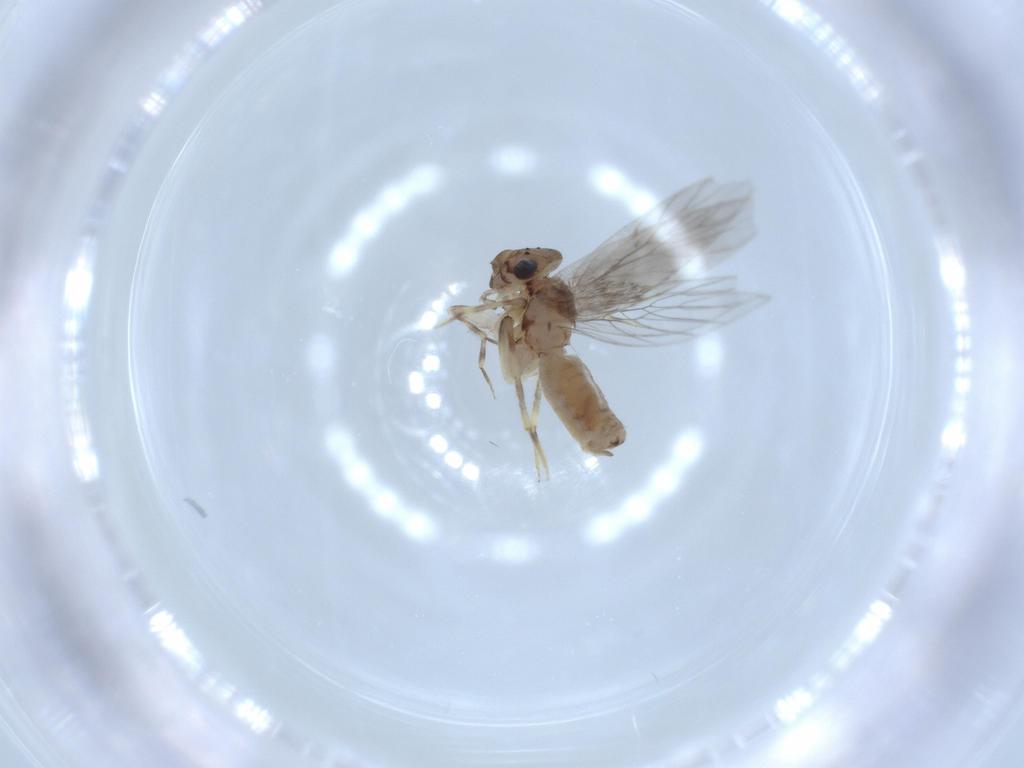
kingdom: Animalia
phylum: Arthropoda
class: Insecta
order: Psocodea
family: Lepidopsocidae
